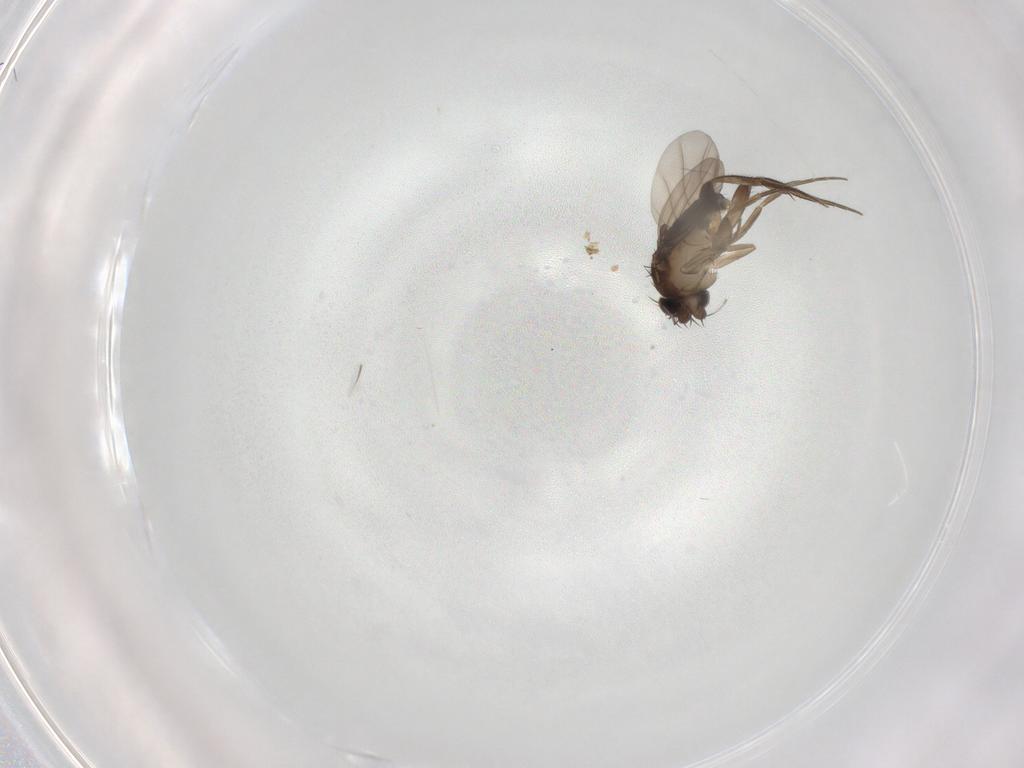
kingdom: Animalia
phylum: Arthropoda
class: Insecta
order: Diptera
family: Phoridae
